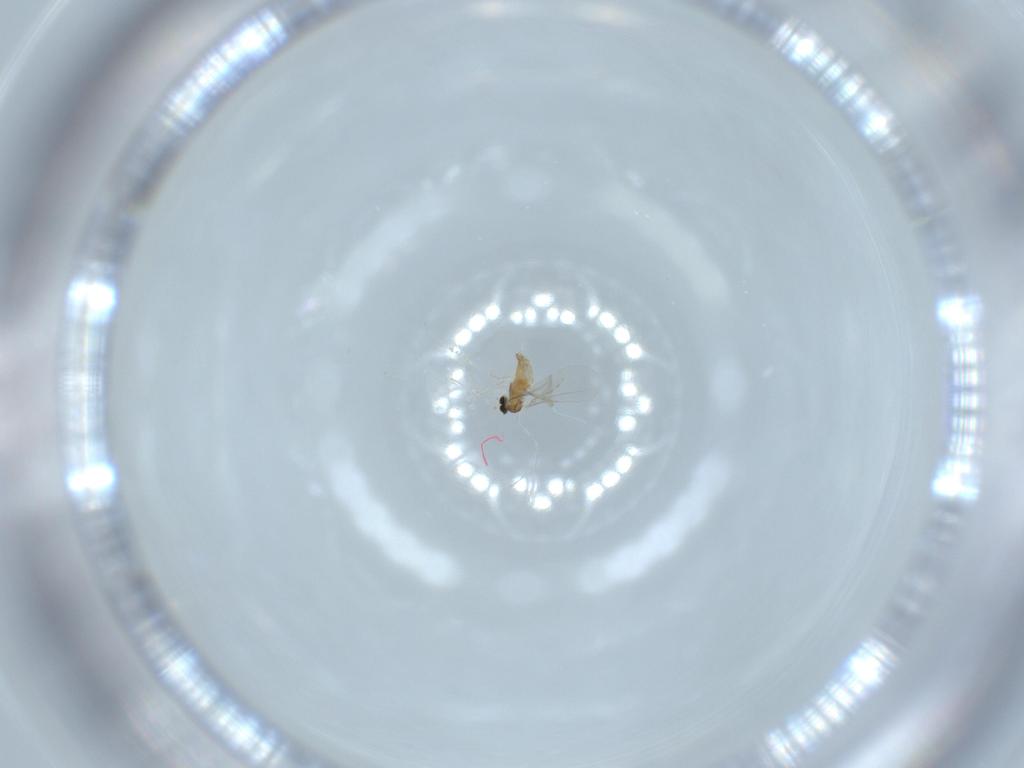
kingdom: Animalia
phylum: Arthropoda
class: Insecta
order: Diptera
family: Cecidomyiidae
